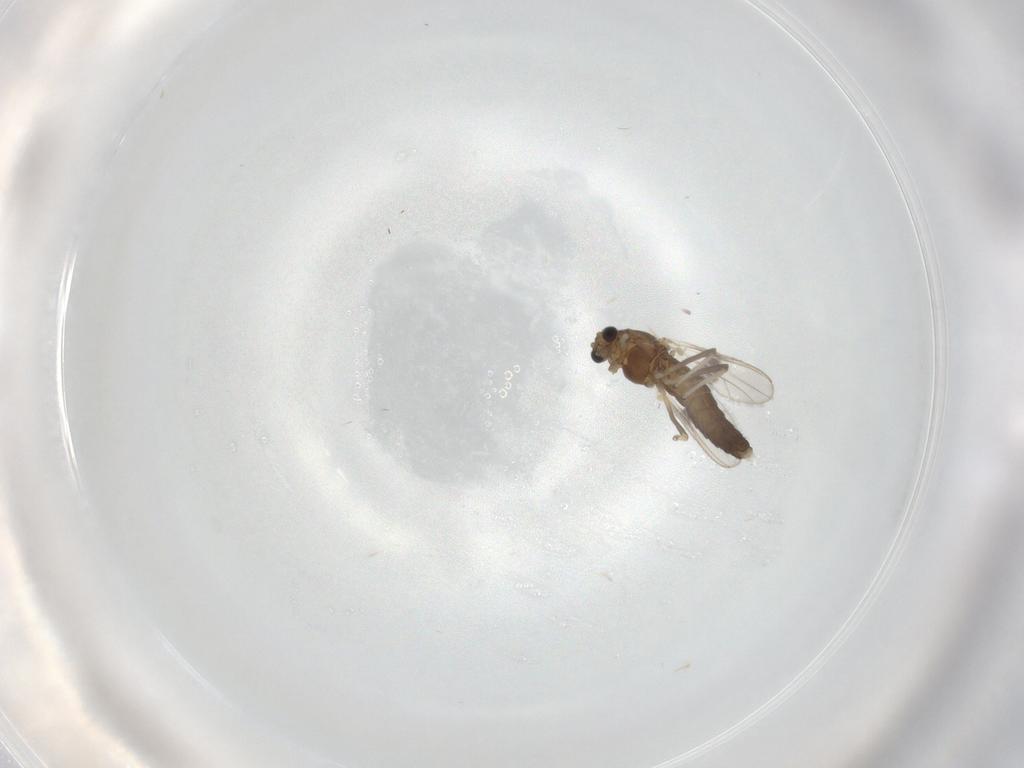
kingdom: Animalia
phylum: Arthropoda
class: Insecta
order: Diptera
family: Chironomidae
